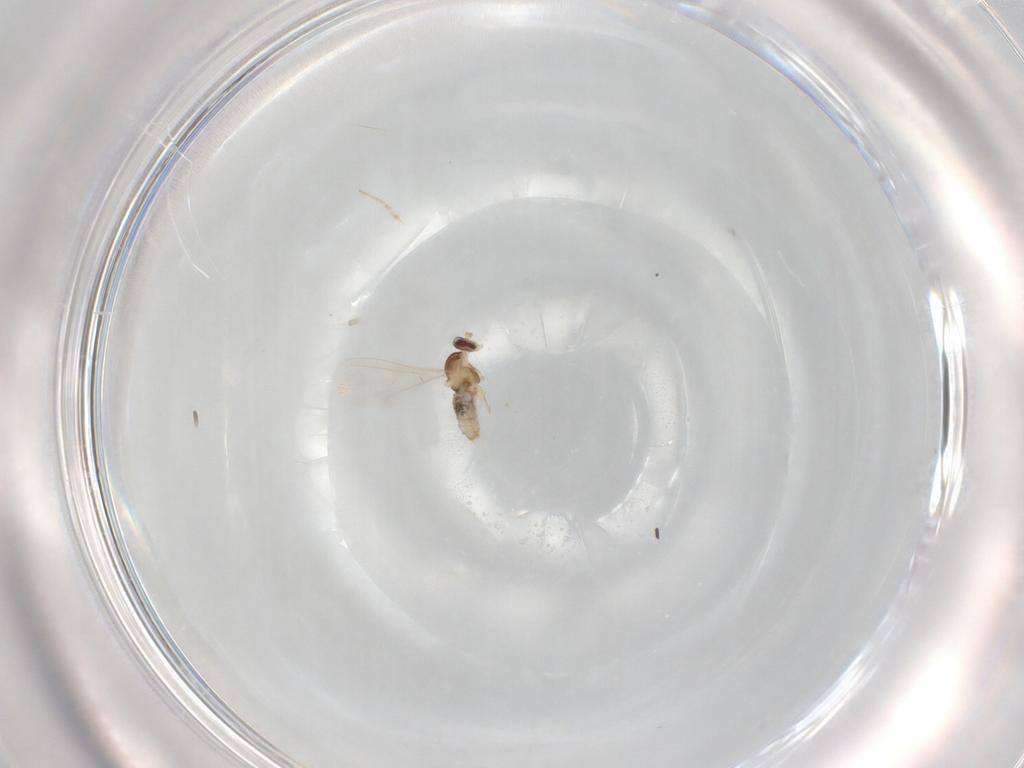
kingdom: Animalia
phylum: Arthropoda
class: Insecta
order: Diptera
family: Cecidomyiidae
